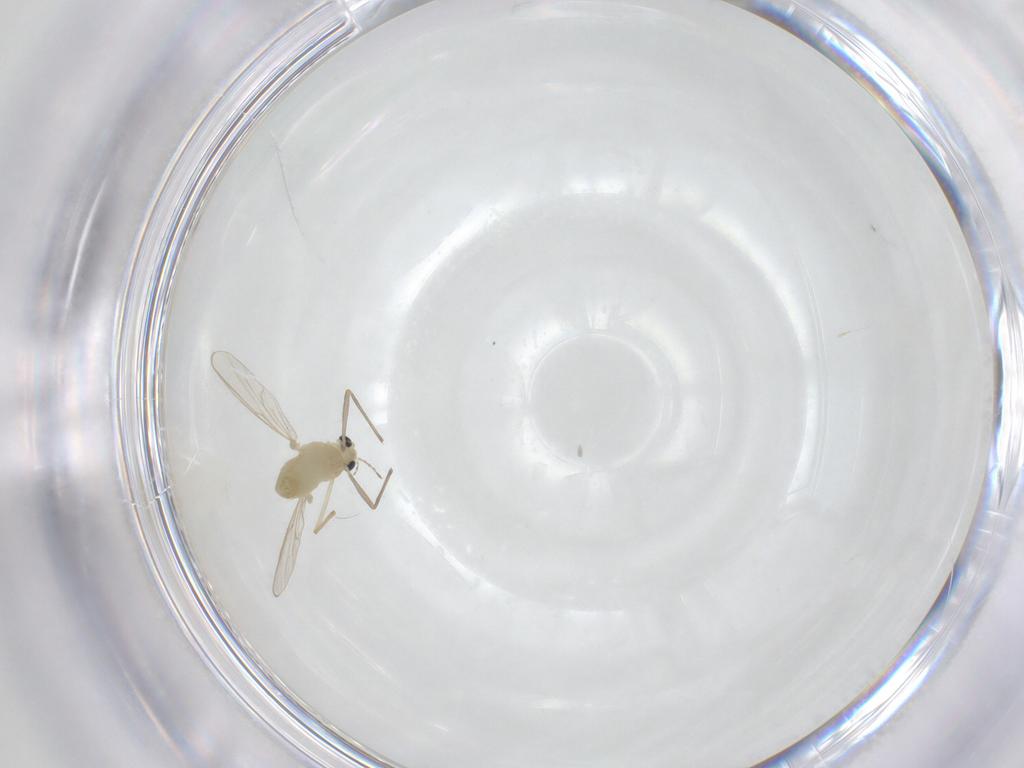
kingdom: Animalia
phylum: Arthropoda
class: Insecta
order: Diptera
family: Chironomidae
